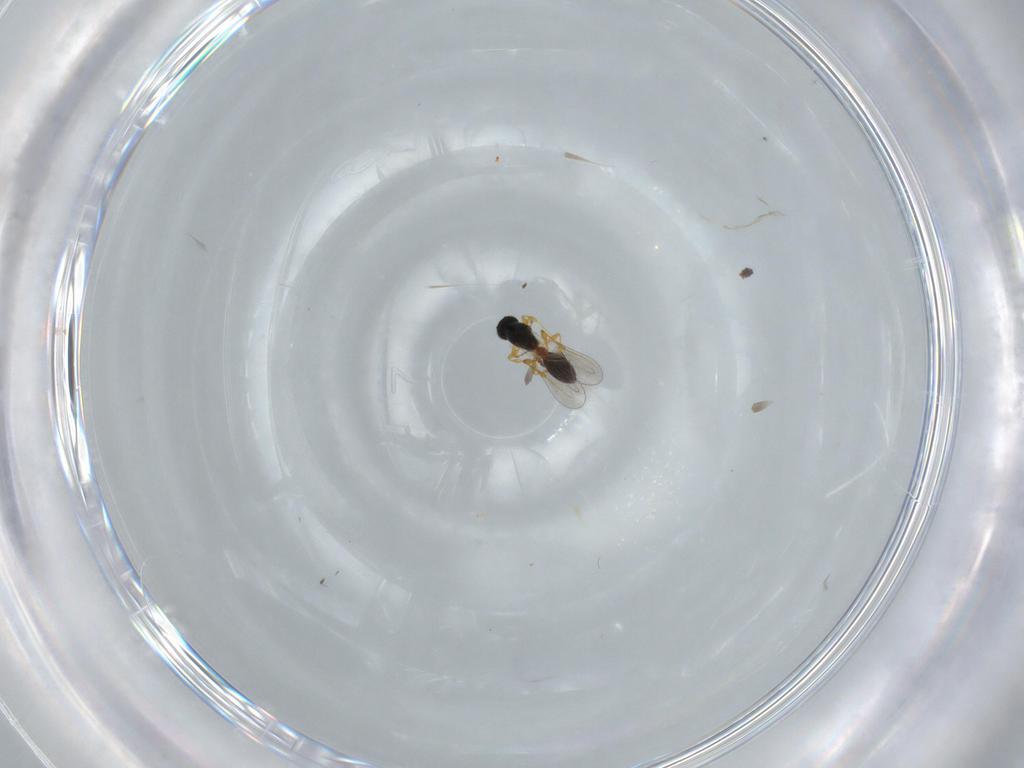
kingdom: Animalia
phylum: Arthropoda
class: Insecta
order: Hymenoptera
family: Platygastridae
